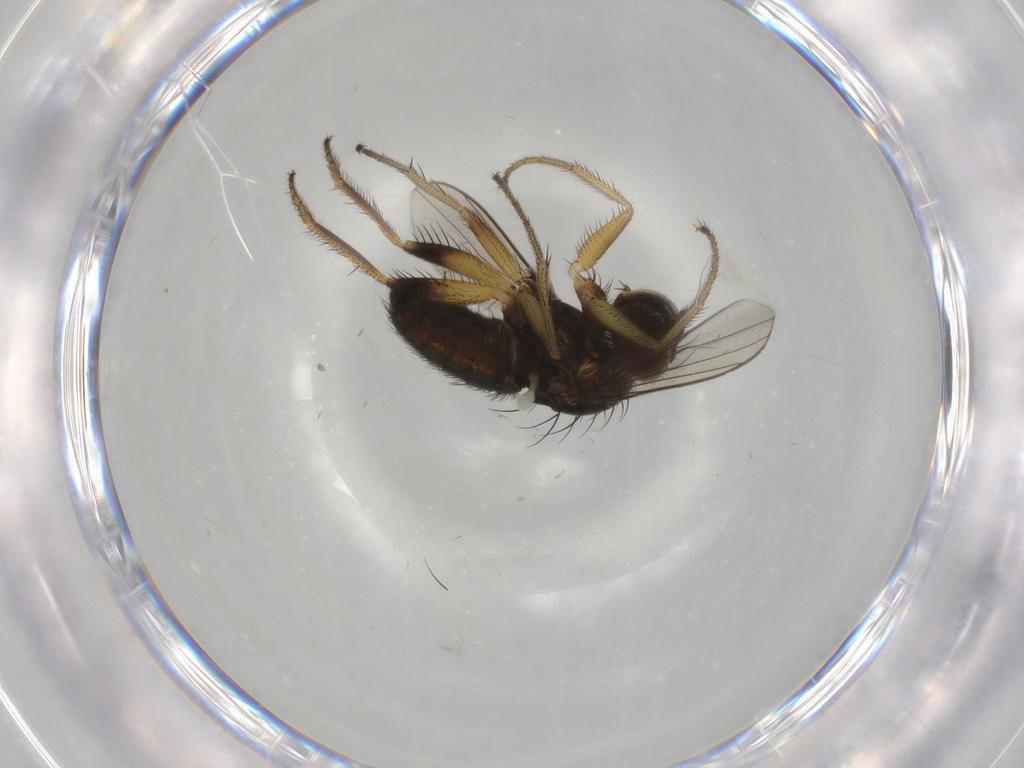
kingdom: Animalia
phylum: Arthropoda
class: Insecta
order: Diptera
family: Dolichopodidae
